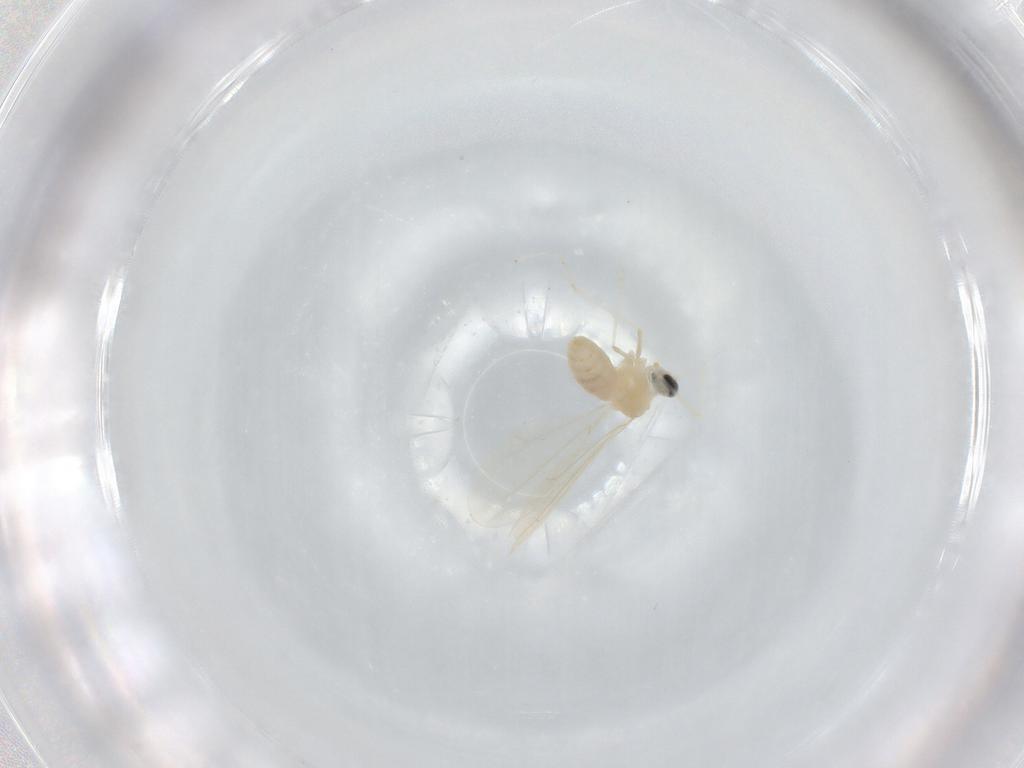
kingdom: Animalia
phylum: Arthropoda
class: Insecta
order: Diptera
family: Cecidomyiidae
